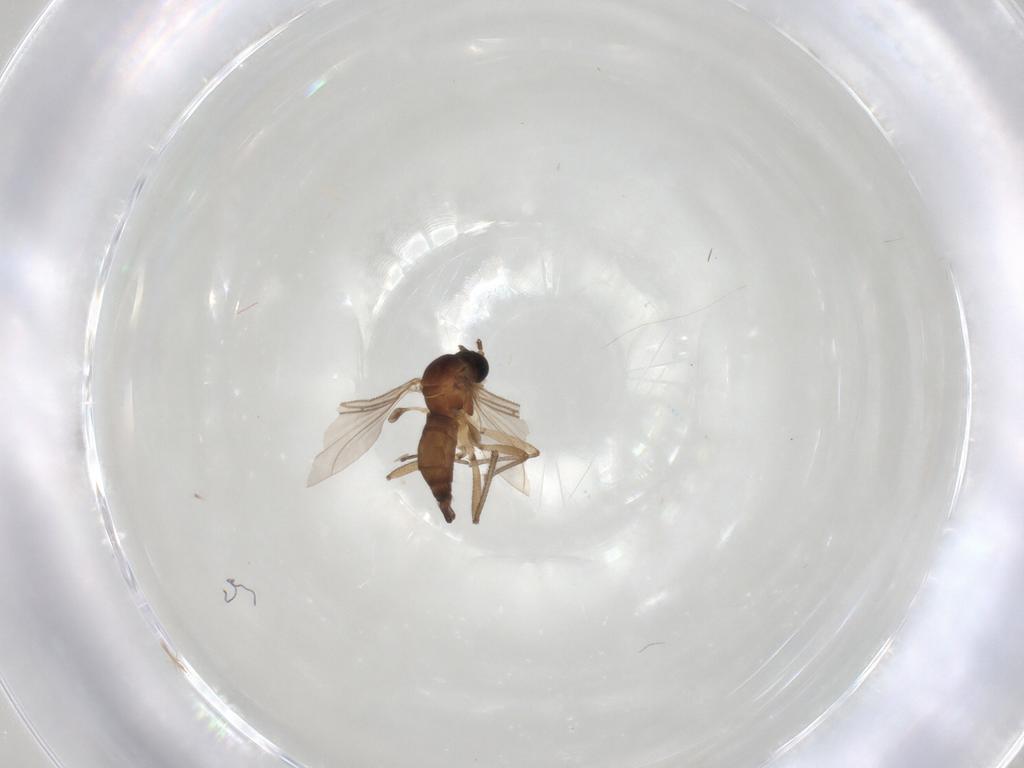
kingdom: Animalia
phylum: Arthropoda
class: Insecta
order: Diptera
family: Sciaridae
